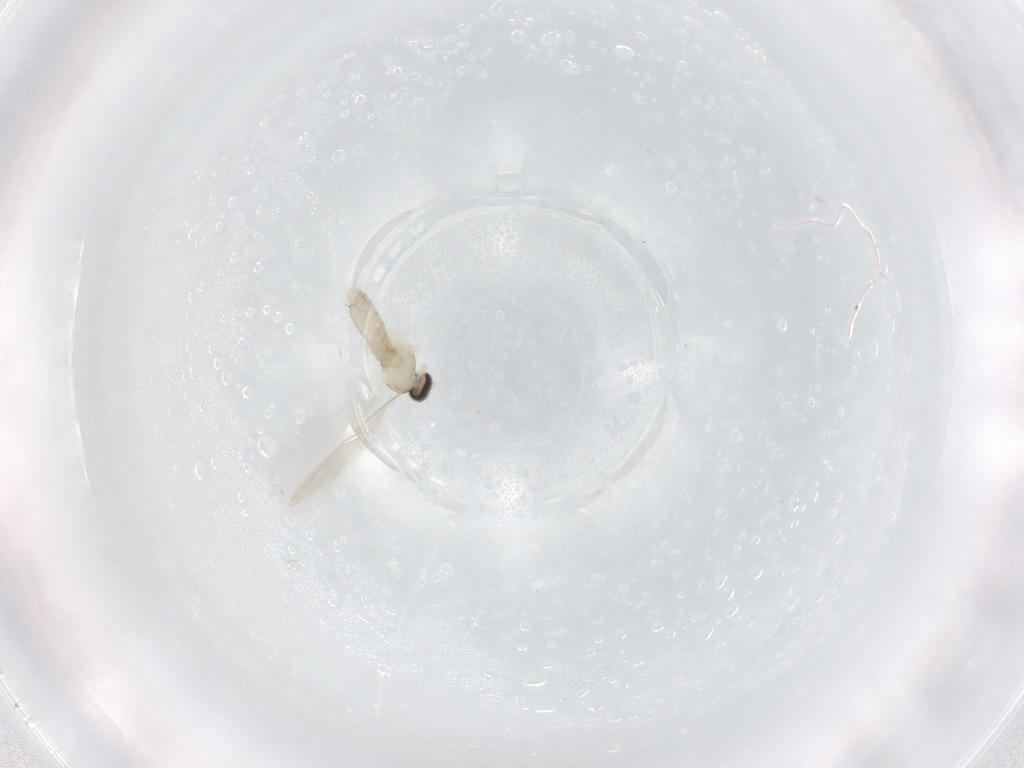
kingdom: Animalia
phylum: Arthropoda
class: Insecta
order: Diptera
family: Cecidomyiidae
